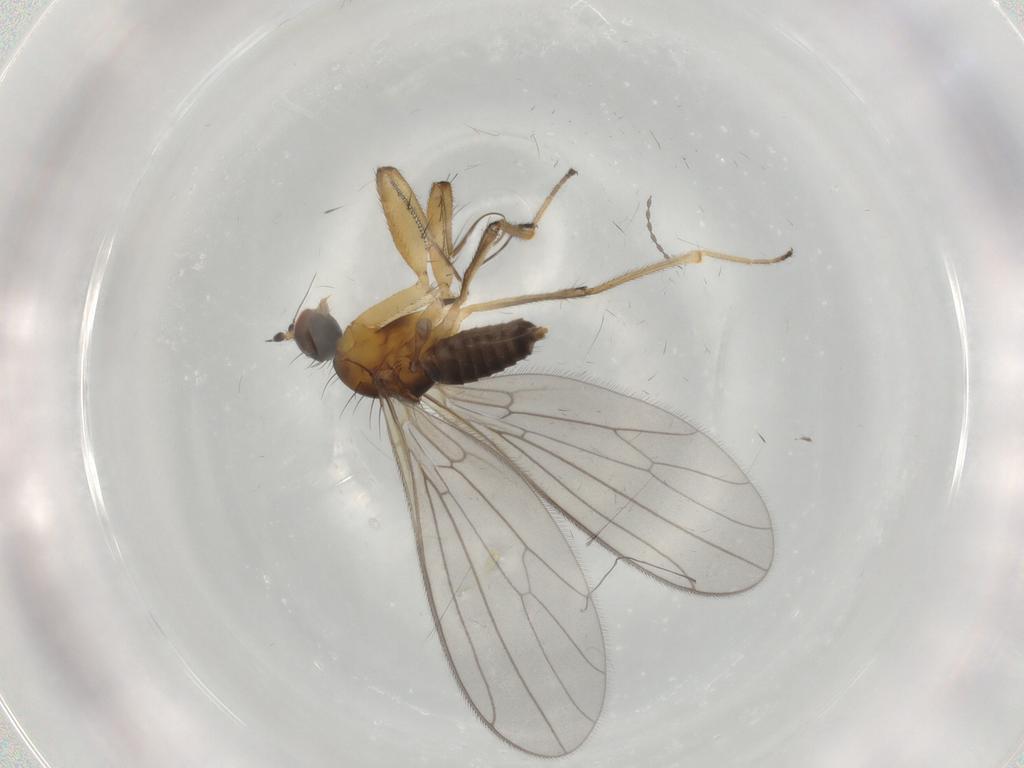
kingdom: Animalia
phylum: Arthropoda
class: Insecta
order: Diptera
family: Empididae
